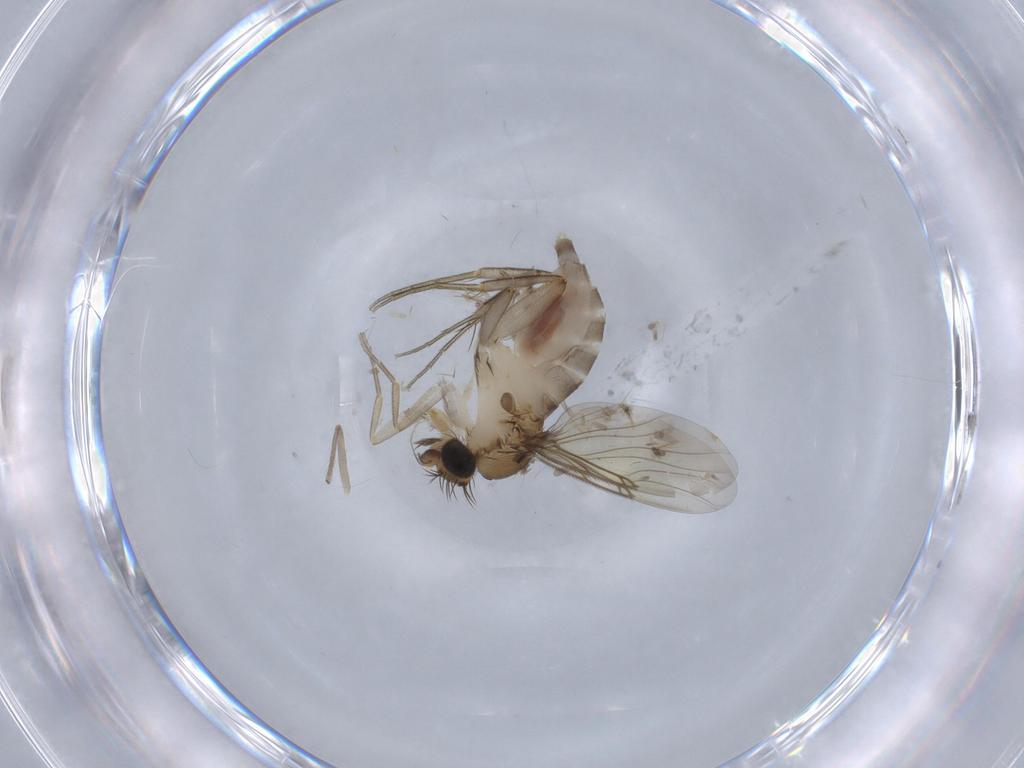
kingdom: Animalia
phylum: Arthropoda
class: Insecta
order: Diptera
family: Phoridae
